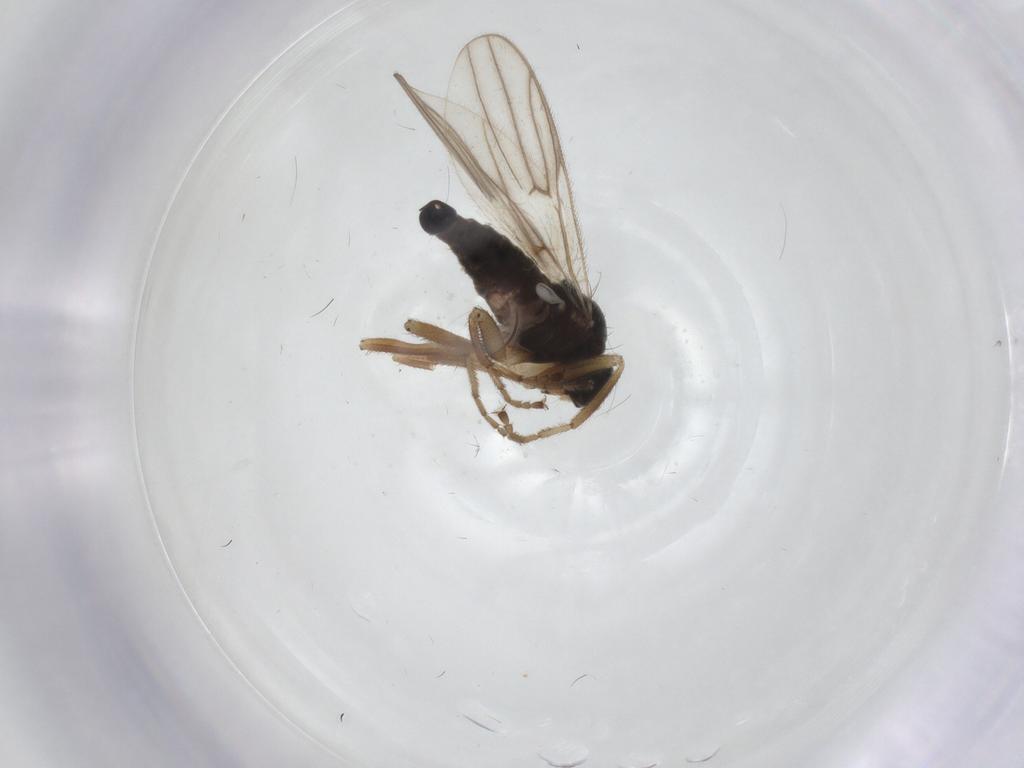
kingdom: Animalia
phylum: Arthropoda
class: Insecta
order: Diptera
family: Hybotidae
